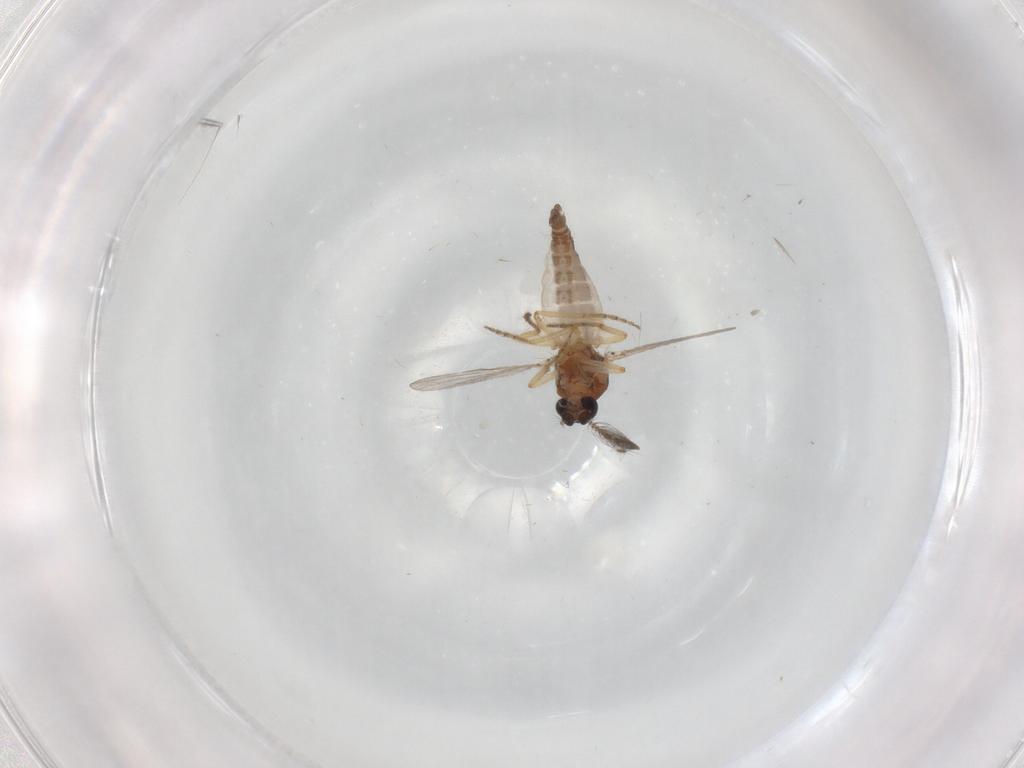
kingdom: Animalia
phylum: Arthropoda
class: Insecta
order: Diptera
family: Ceratopogonidae
